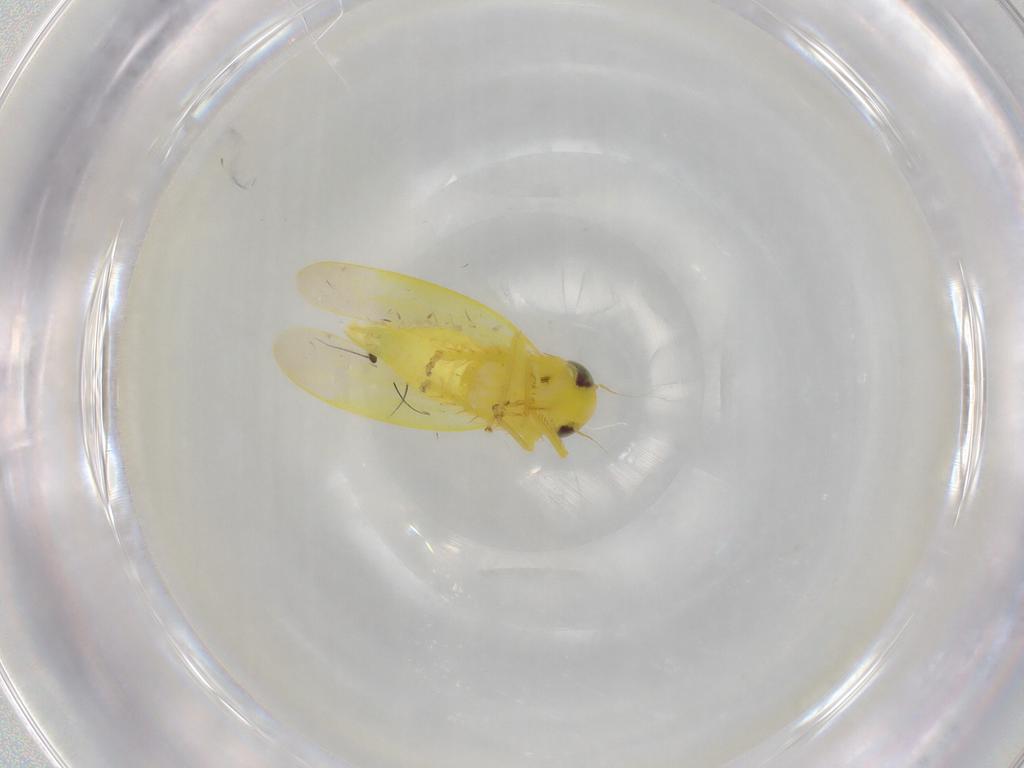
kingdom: Animalia
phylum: Arthropoda
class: Insecta
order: Hemiptera
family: Cicadellidae
